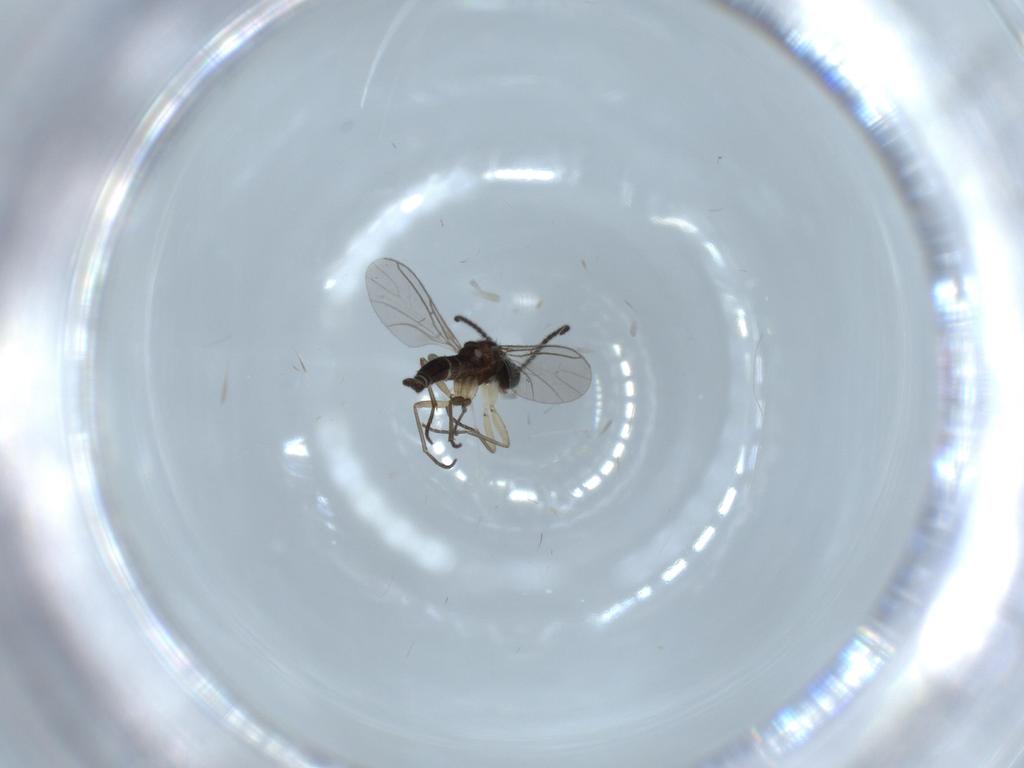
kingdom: Animalia
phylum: Arthropoda
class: Insecta
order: Diptera
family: Sciaridae
